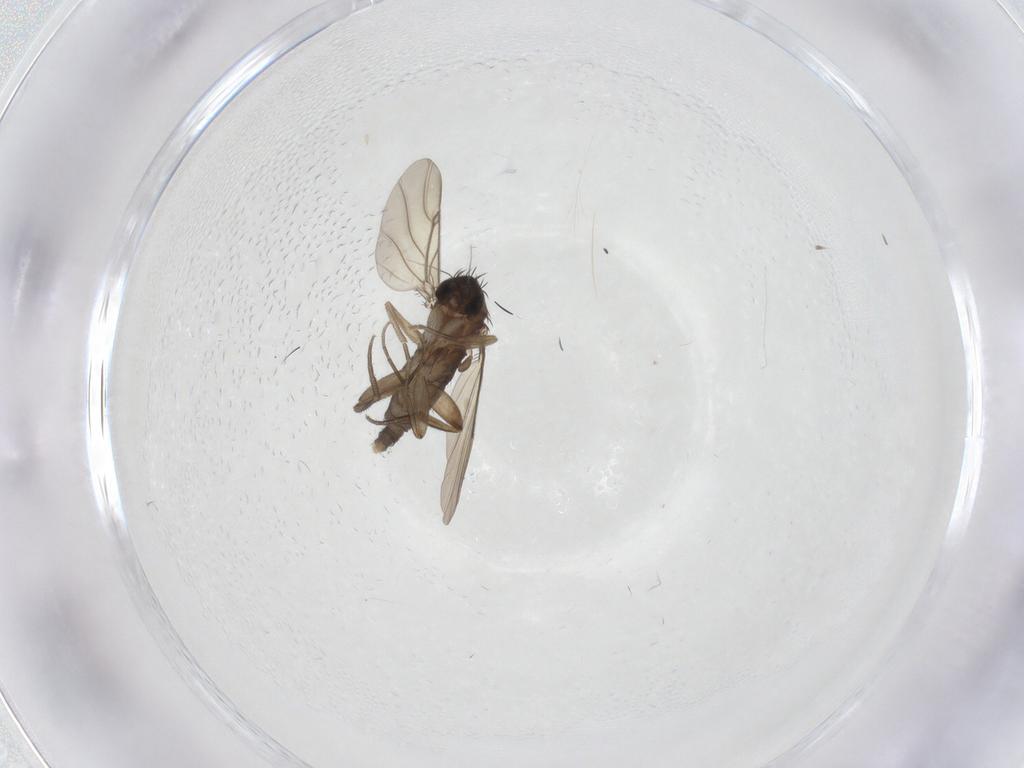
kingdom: Animalia
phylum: Arthropoda
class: Insecta
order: Diptera
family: Phoridae
